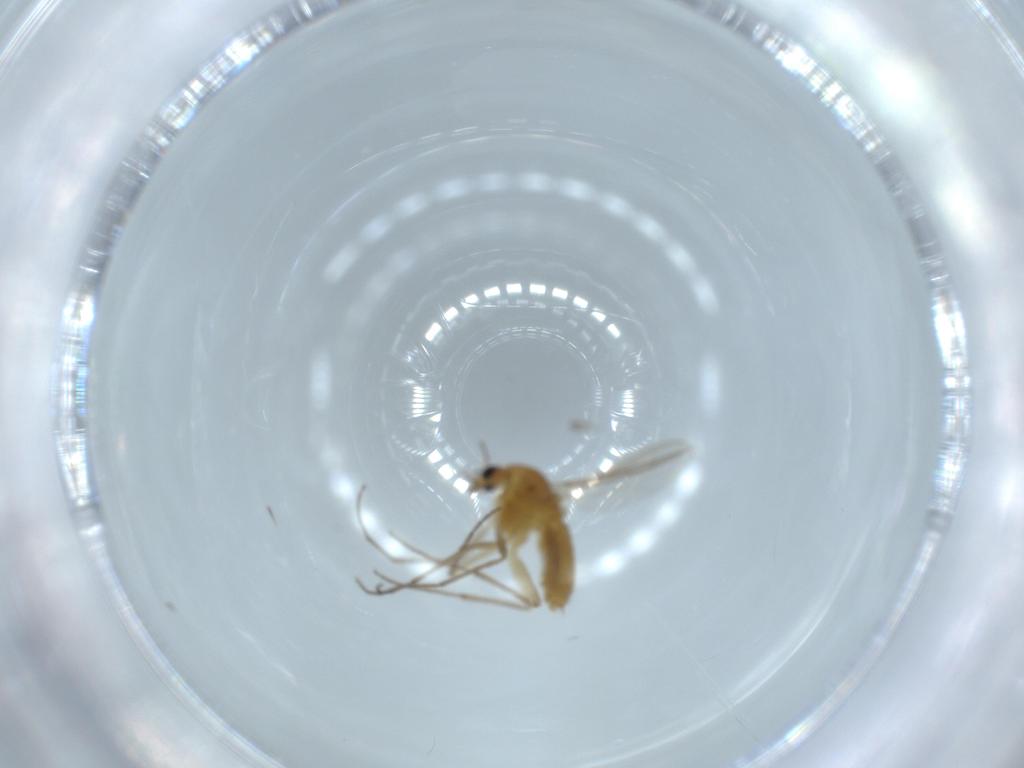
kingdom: Animalia
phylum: Arthropoda
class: Insecta
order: Diptera
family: Chironomidae
